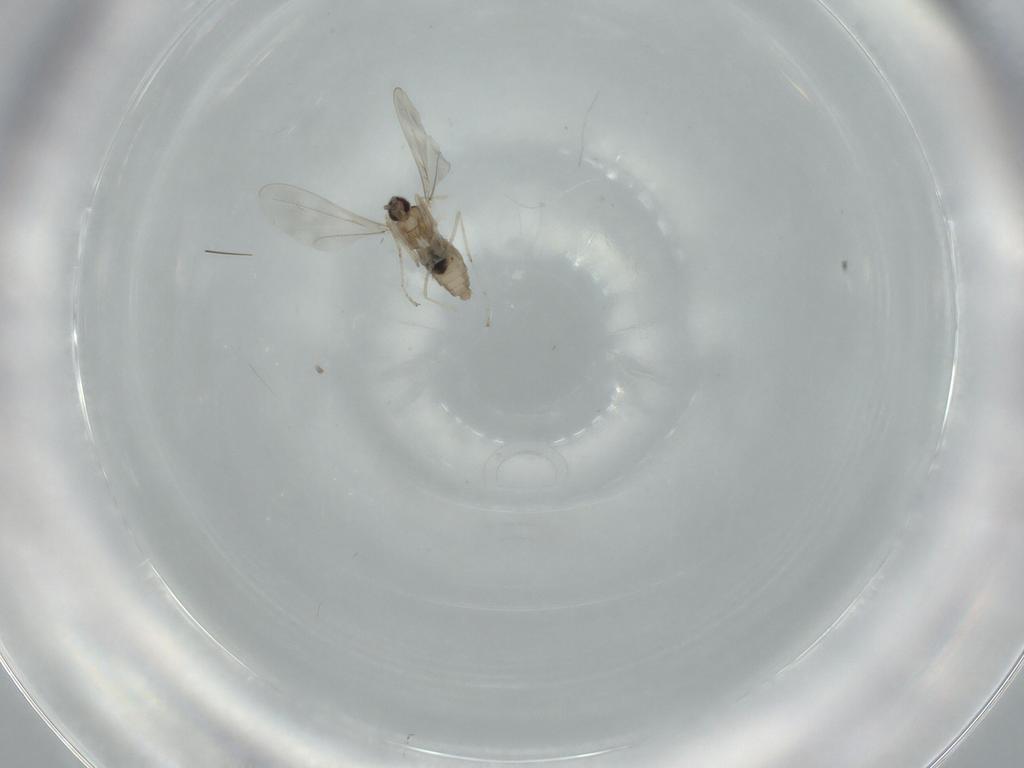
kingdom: Animalia
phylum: Arthropoda
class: Insecta
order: Diptera
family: Cecidomyiidae
